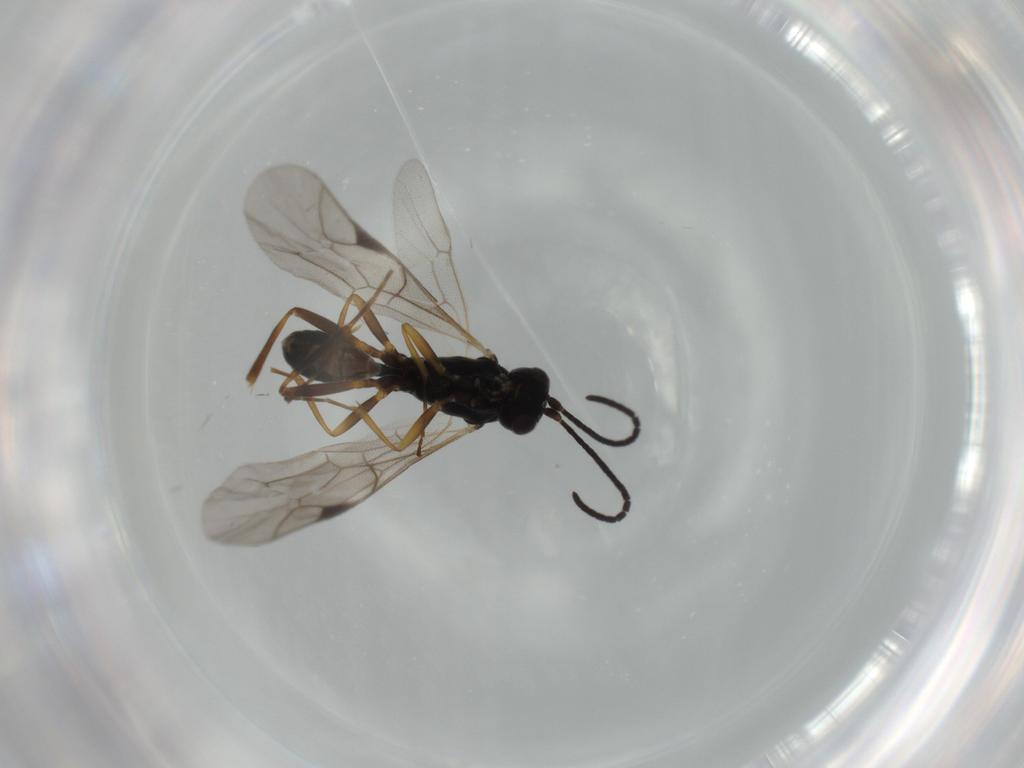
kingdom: Animalia
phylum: Arthropoda
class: Insecta
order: Hymenoptera
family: Ichneumonidae
